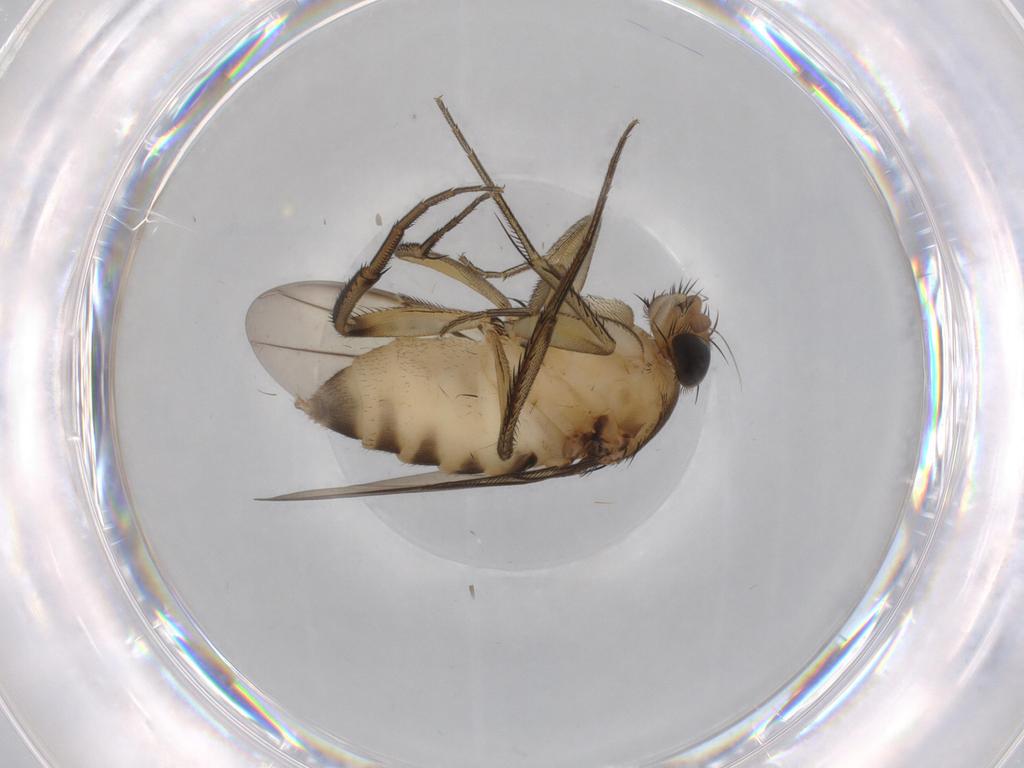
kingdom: Animalia
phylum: Arthropoda
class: Insecta
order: Diptera
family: Sciaridae
